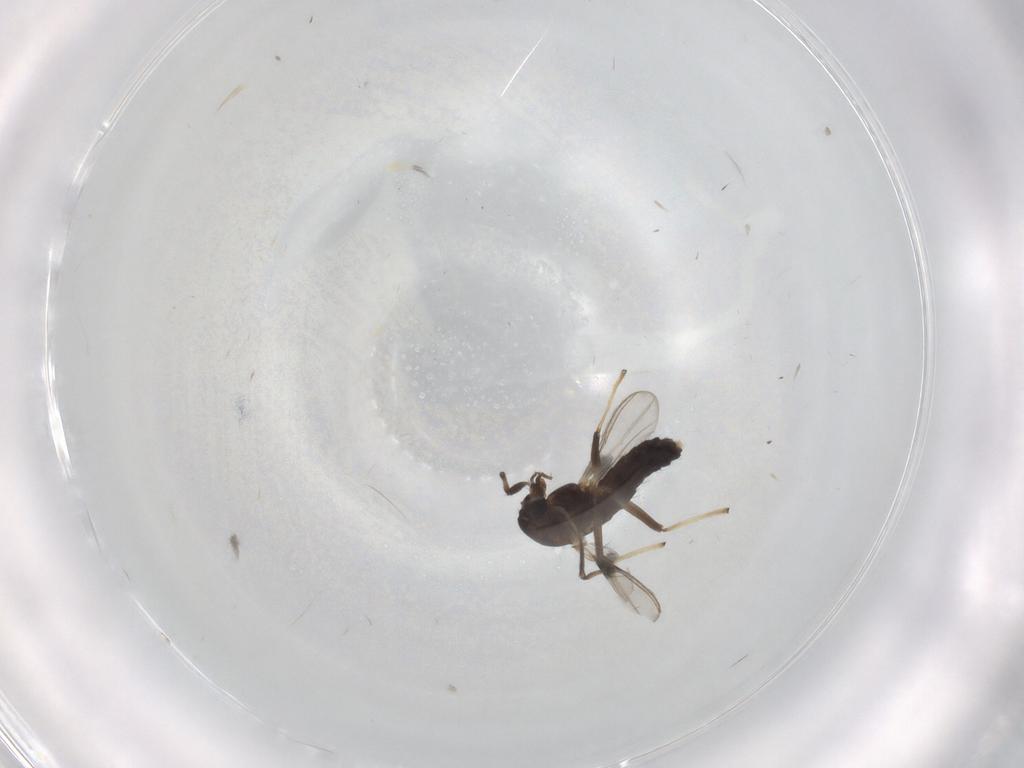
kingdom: Animalia
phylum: Arthropoda
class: Insecta
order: Diptera
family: Chironomidae
